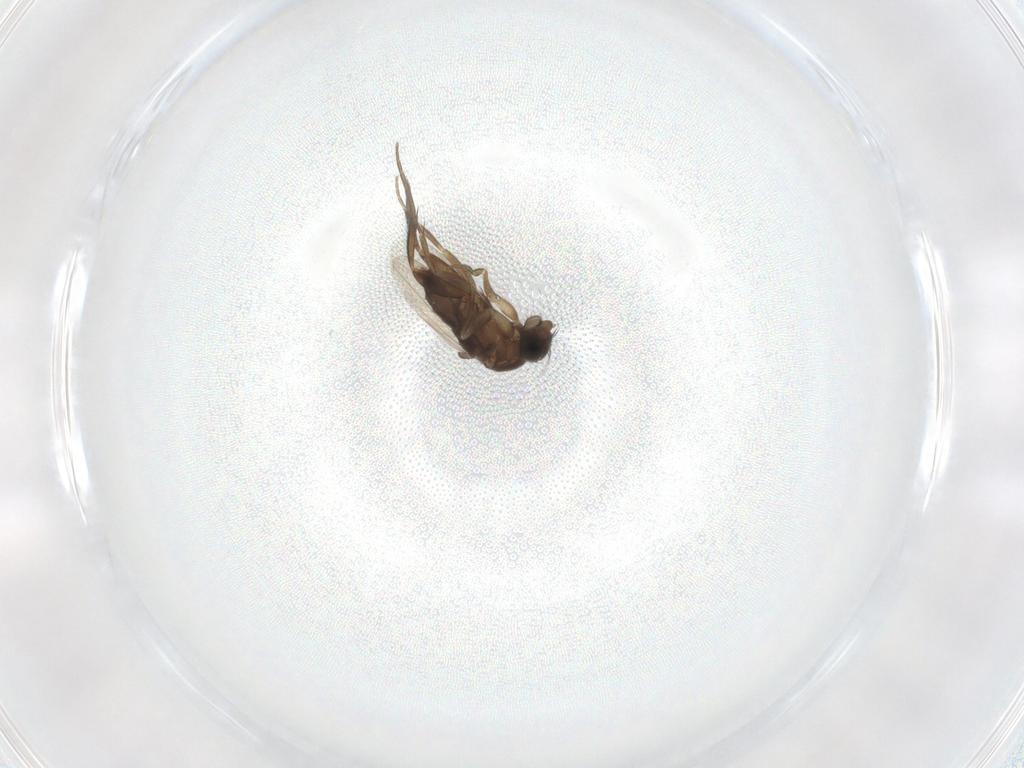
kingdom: Animalia
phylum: Arthropoda
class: Insecta
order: Diptera
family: Phoridae
